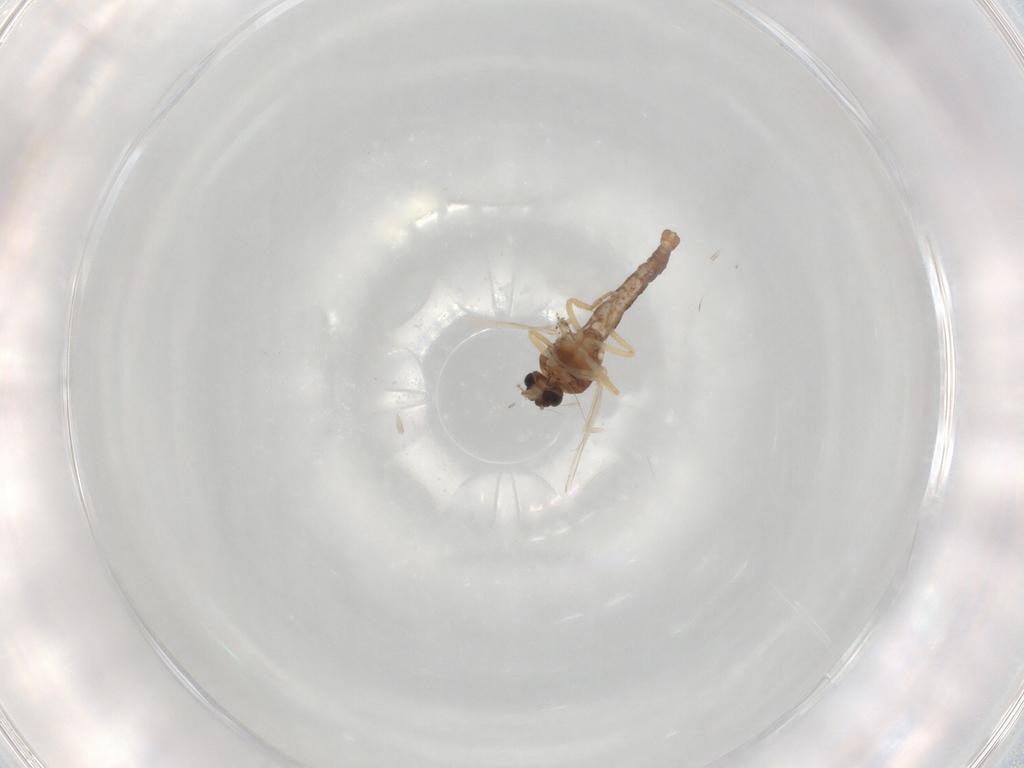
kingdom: Animalia
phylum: Arthropoda
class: Insecta
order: Diptera
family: Ceratopogonidae
